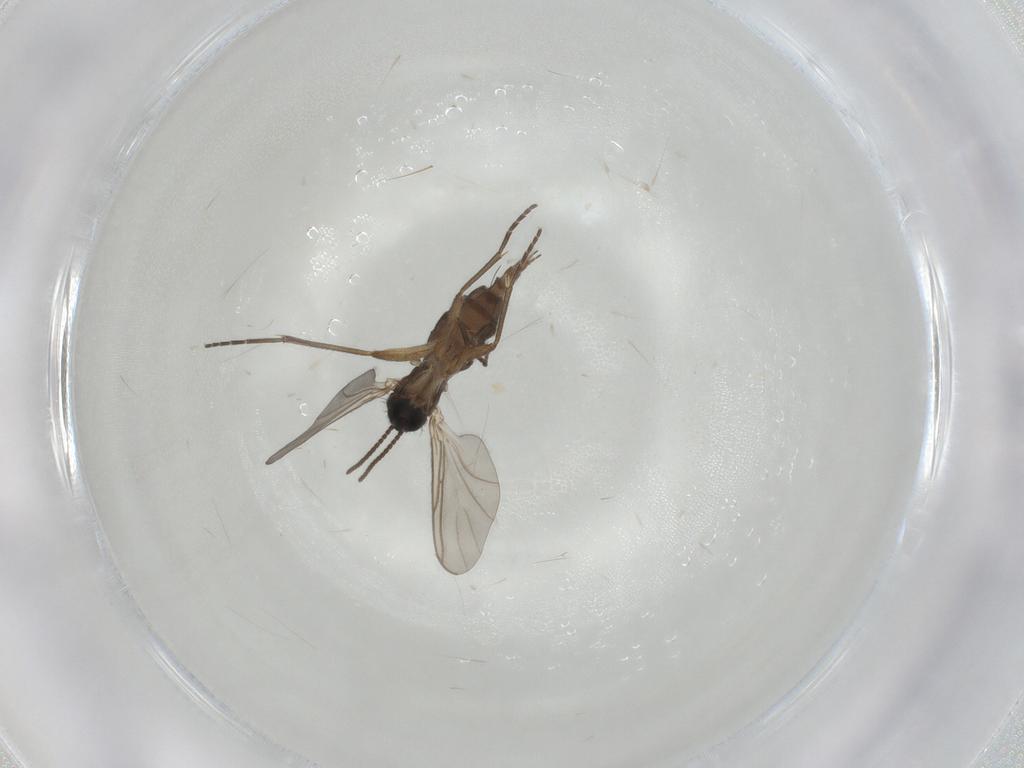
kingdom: Animalia
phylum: Arthropoda
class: Insecta
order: Diptera
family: Sciaridae
